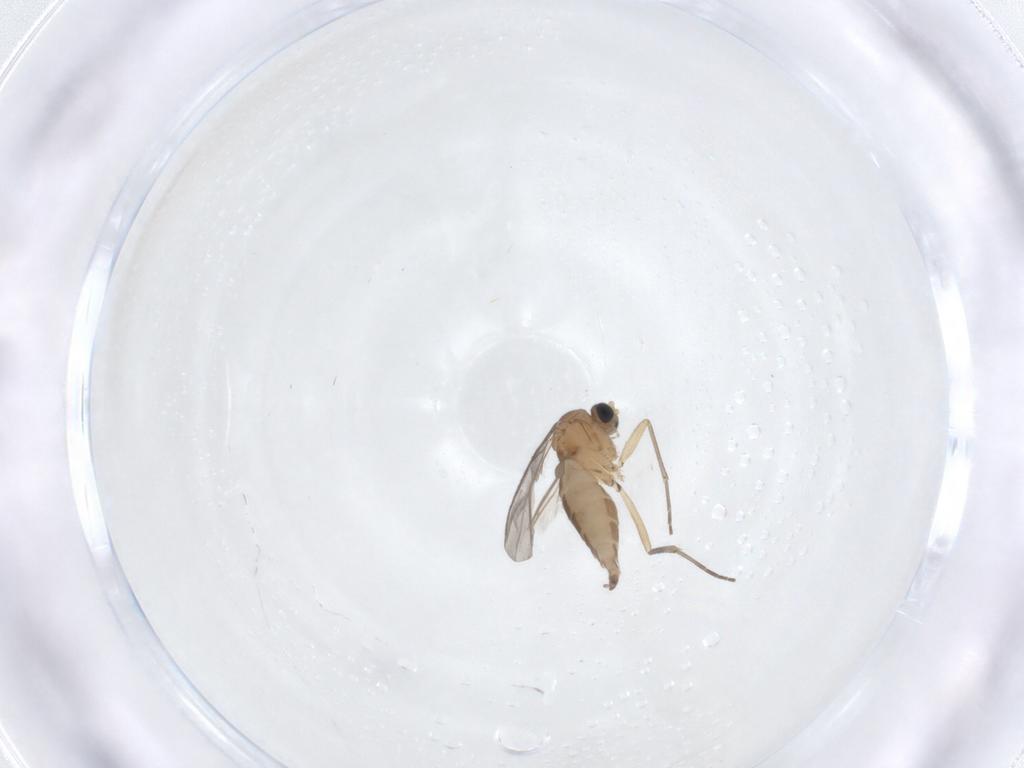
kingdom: Animalia
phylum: Arthropoda
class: Insecta
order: Diptera
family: Sciaridae
